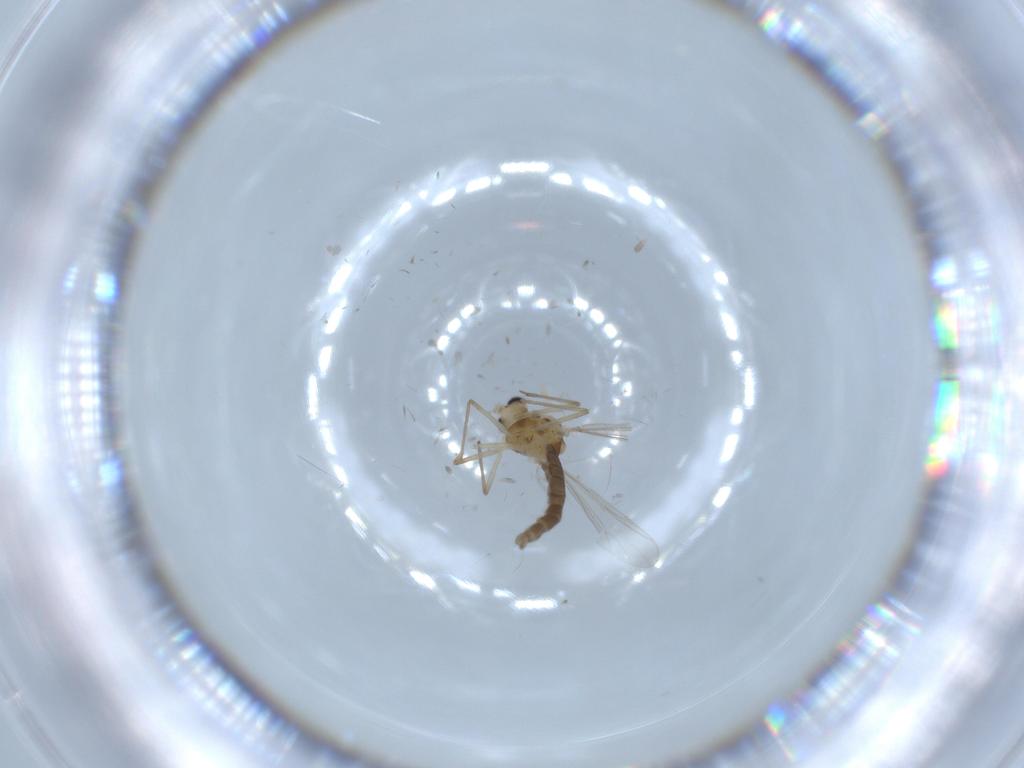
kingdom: Animalia
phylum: Arthropoda
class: Insecta
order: Diptera
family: Chironomidae
